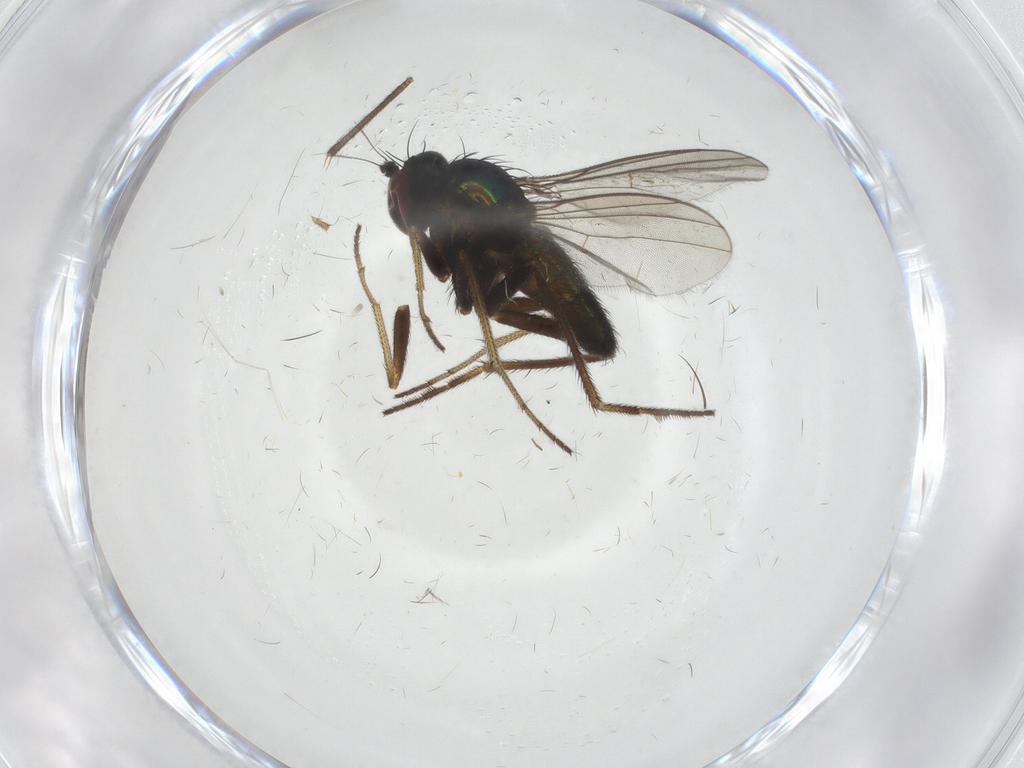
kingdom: Animalia
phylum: Arthropoda
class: Insecta
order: Diptera
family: Dolichopodidae
